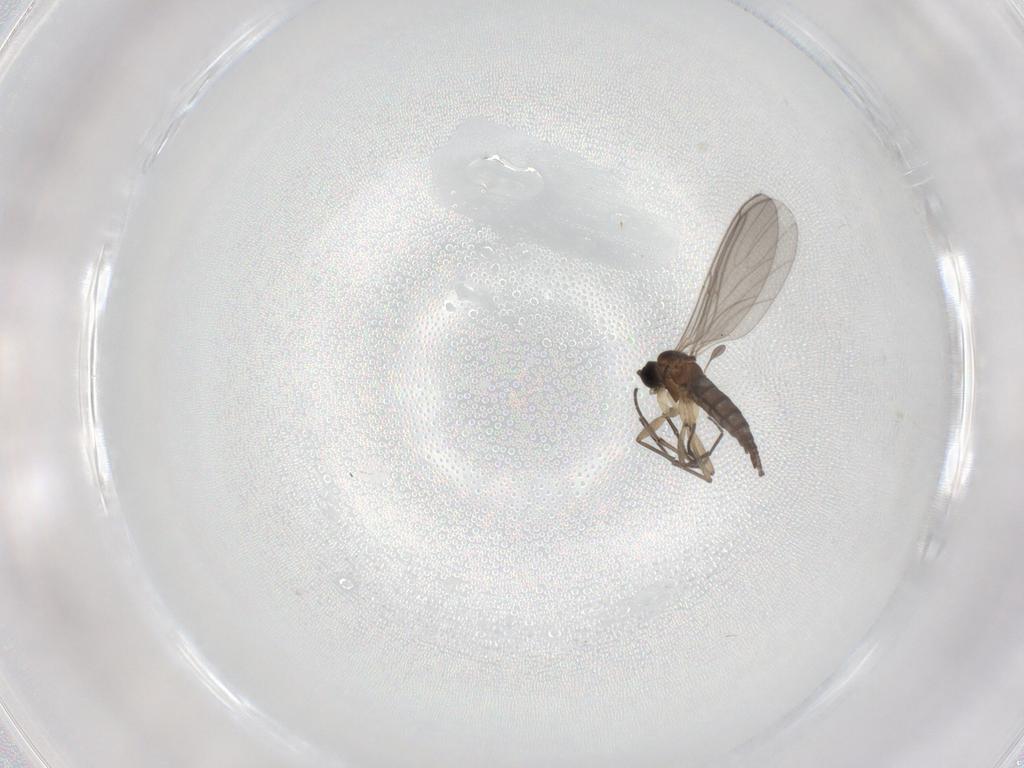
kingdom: Animalia
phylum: Arthropoda
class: Insecta
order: Diptera
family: Sciaridae
